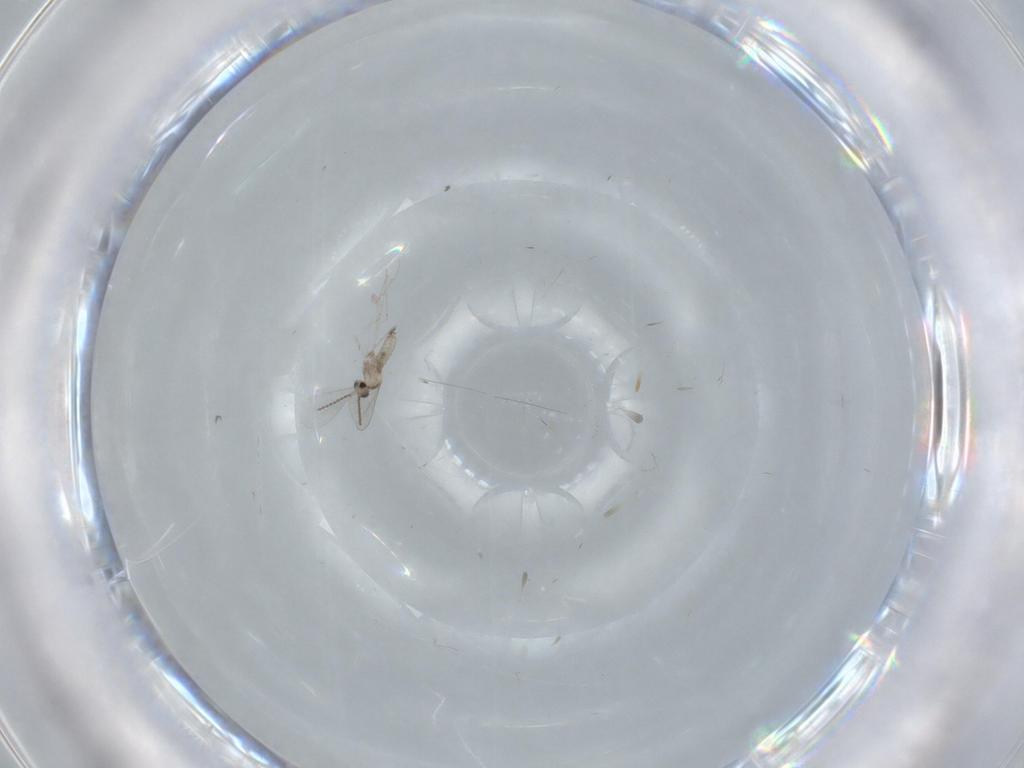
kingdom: Animalia
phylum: Arthropoda
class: Insecta
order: Diptera
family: Cecidomyiidae
